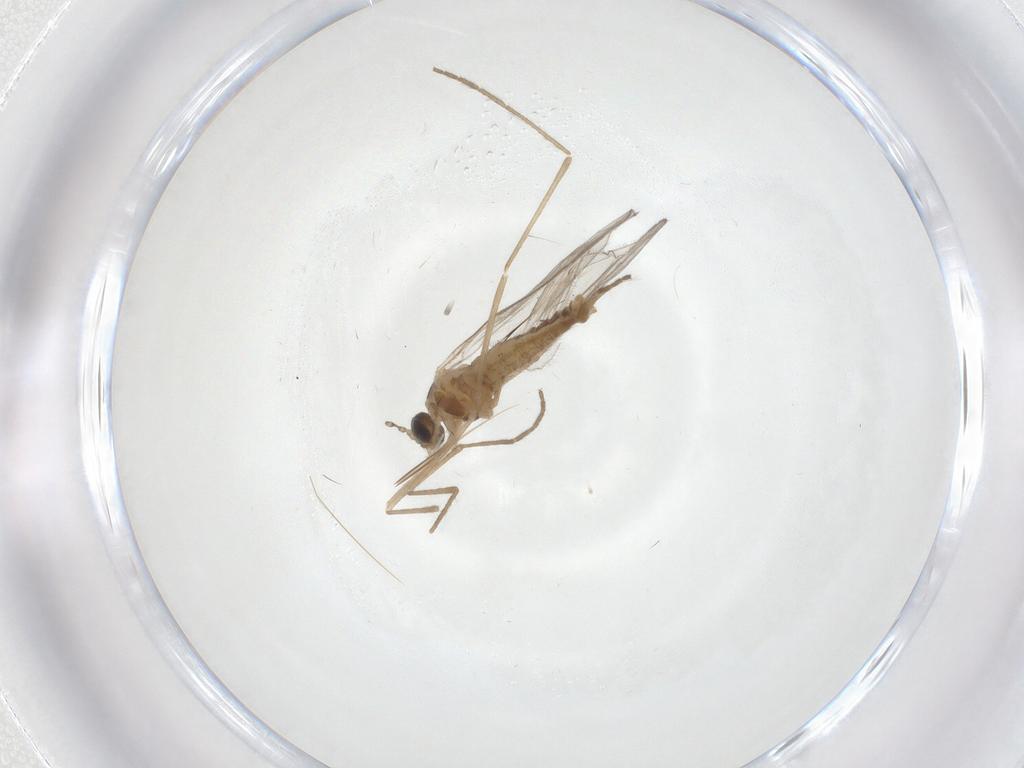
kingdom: Animalia
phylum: Arthropoda
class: Insecta
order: Diptera
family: Cecidomyiidae
